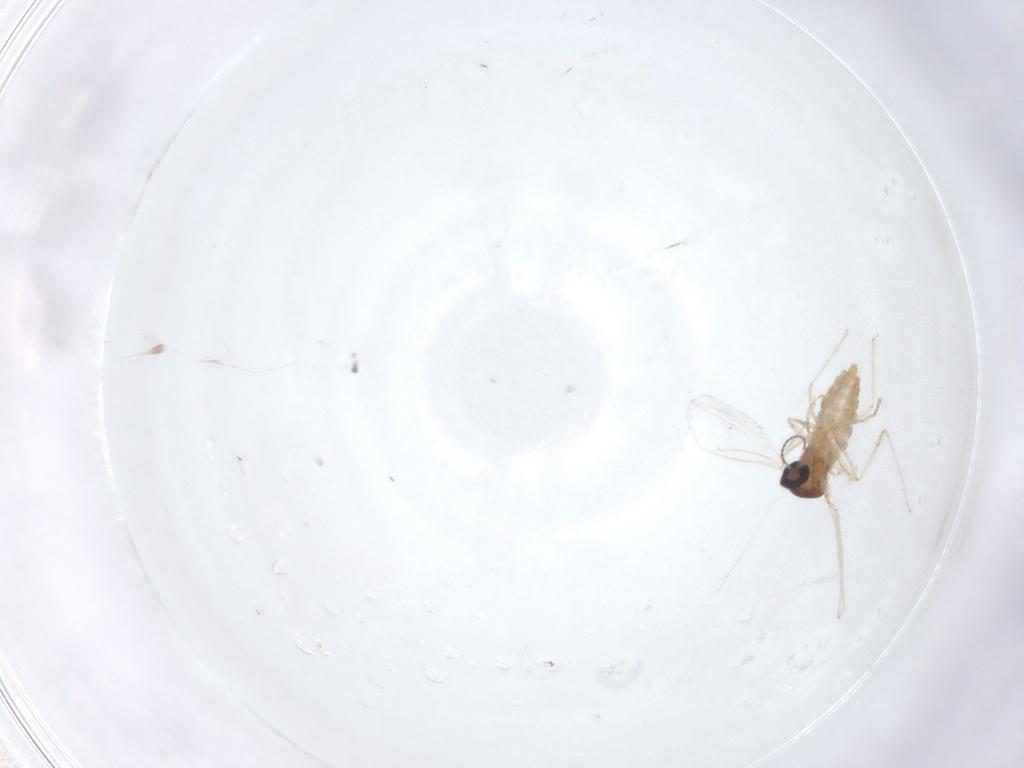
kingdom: Animalia
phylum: Arthropoda
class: Insecta
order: Diptera
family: Cecidomyiidae
